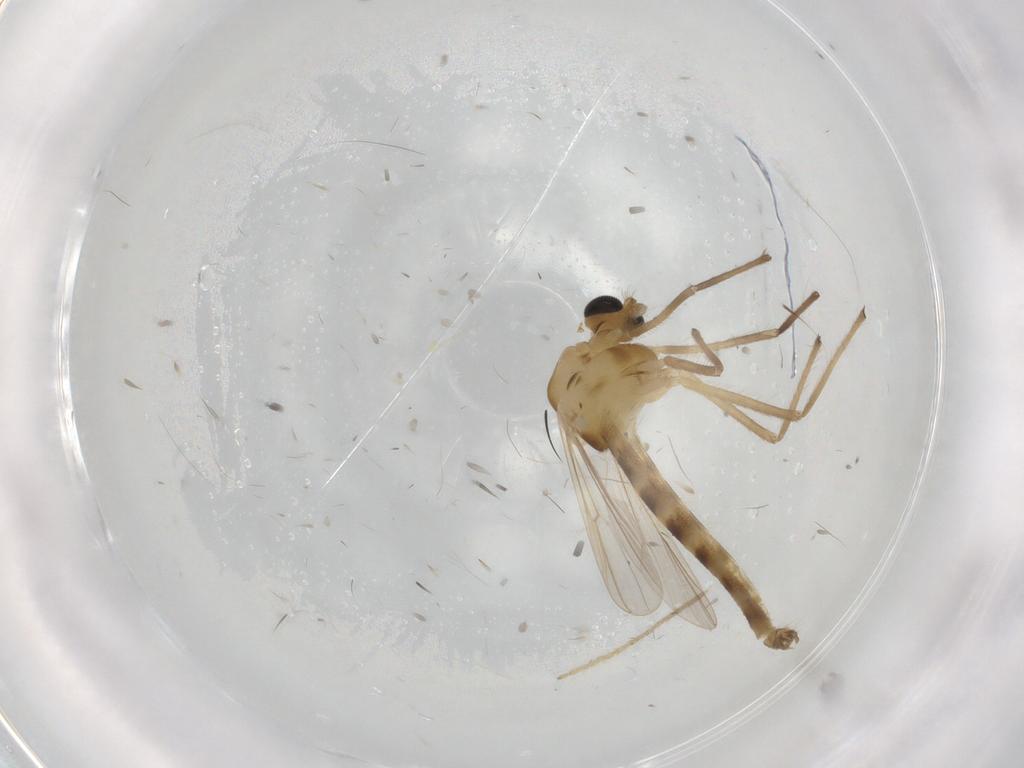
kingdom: Animalia
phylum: Arthropoda
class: Insecta
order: Diptera
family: Chironomidae
